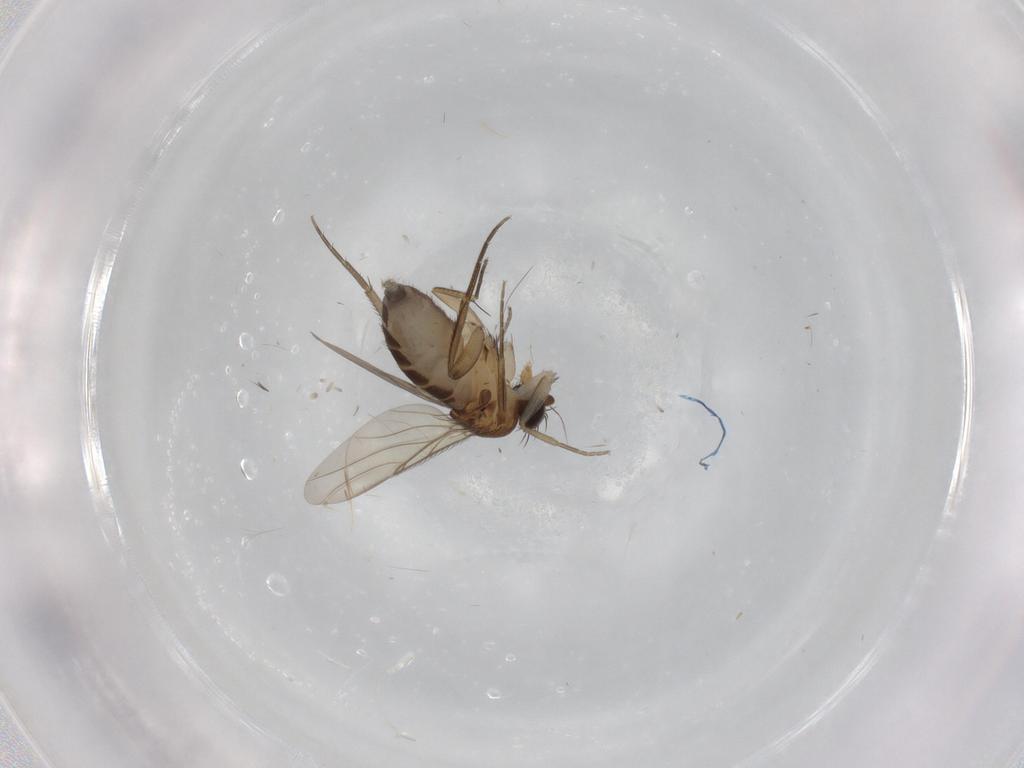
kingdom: Animalia
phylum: Arthropoda
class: Insecta
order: Diptera
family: Phoridae
